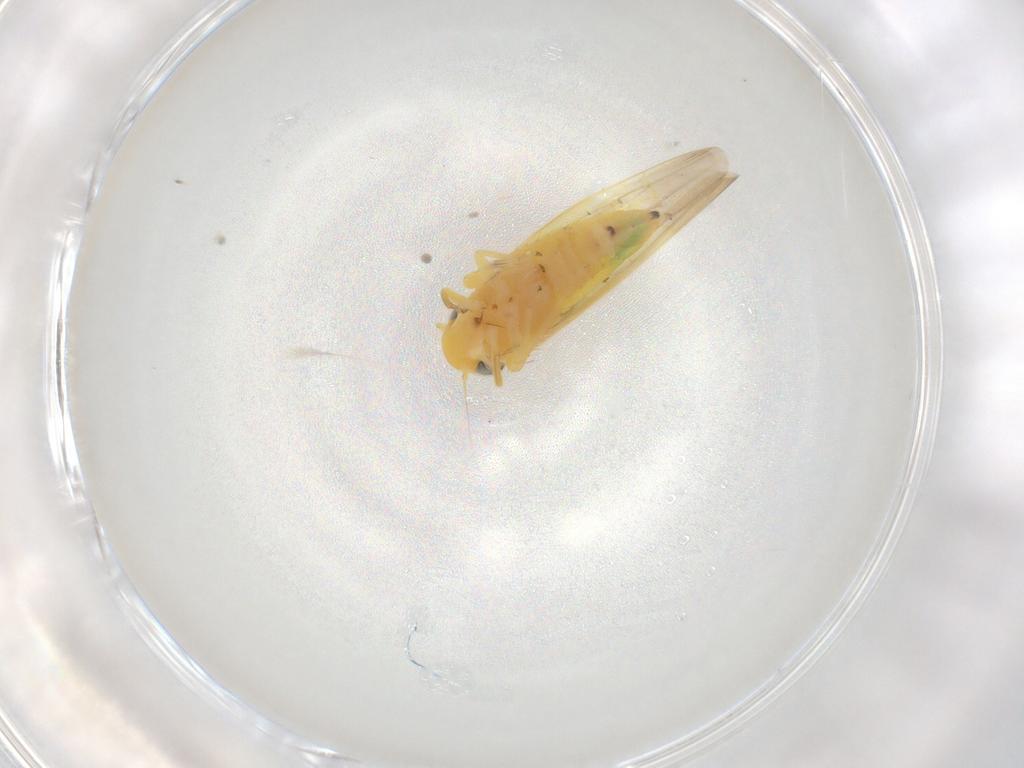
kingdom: Animalia
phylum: Arthropoda
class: Insecta
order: Hemiptera
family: Cicadellidae
